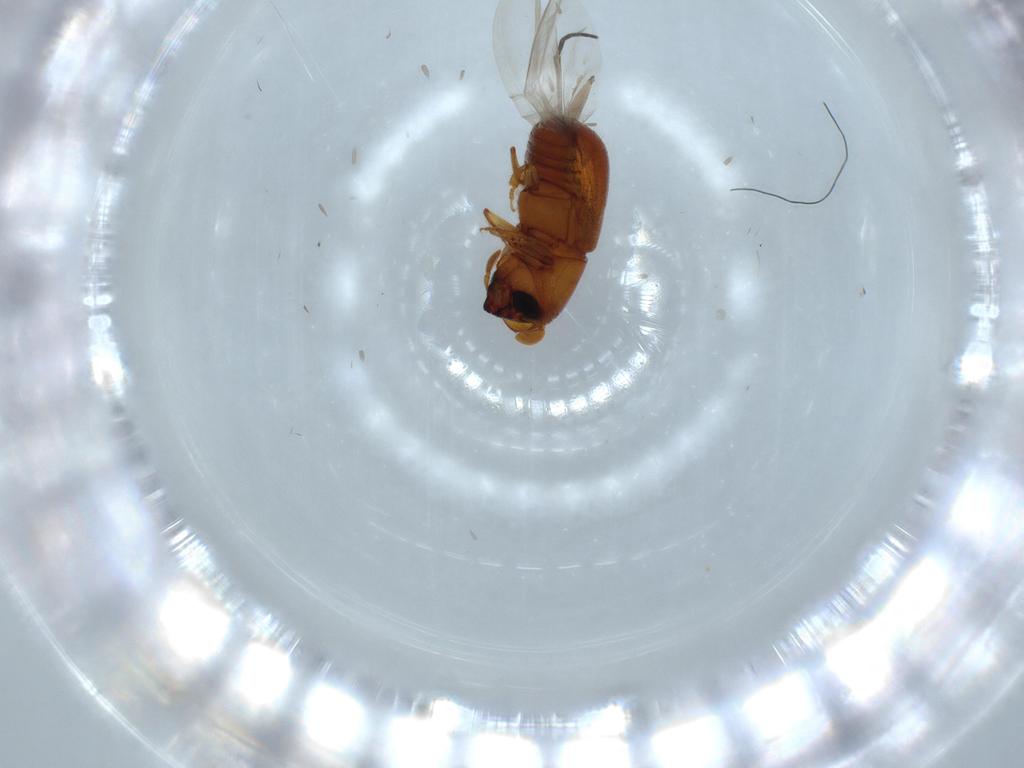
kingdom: Animalia
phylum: Arthropoda
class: Insecta
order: Coleoptera
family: Curculionidae
